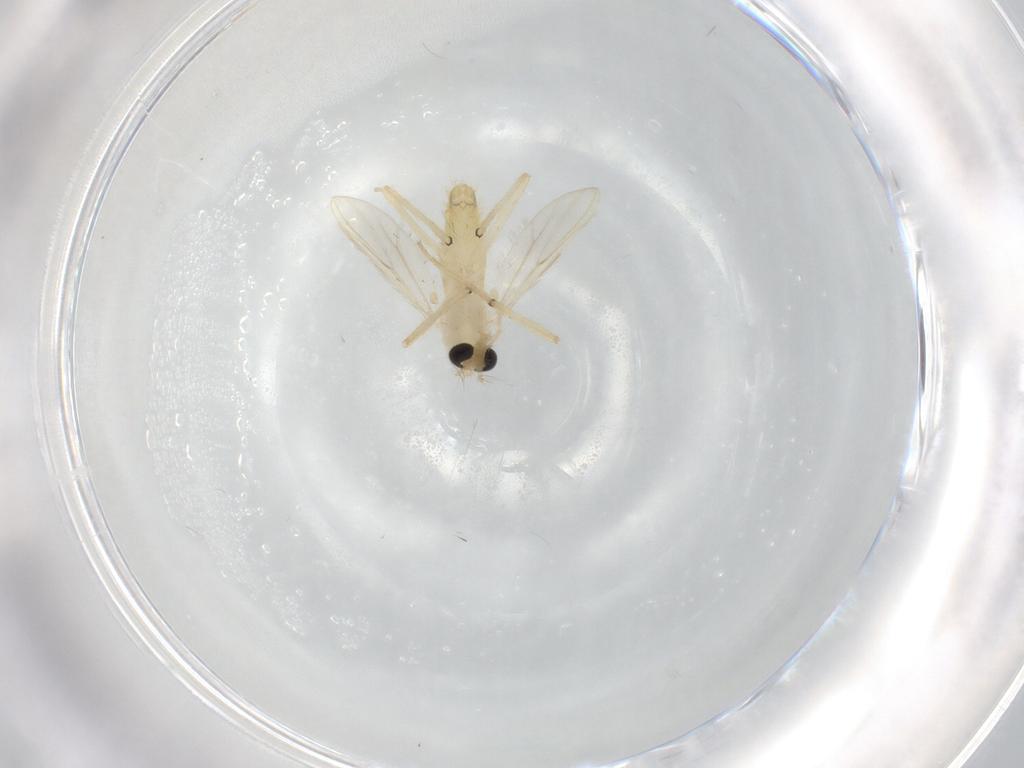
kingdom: Animalia
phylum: Arthropoda
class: Insecta
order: Diptera
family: Chironomidae
